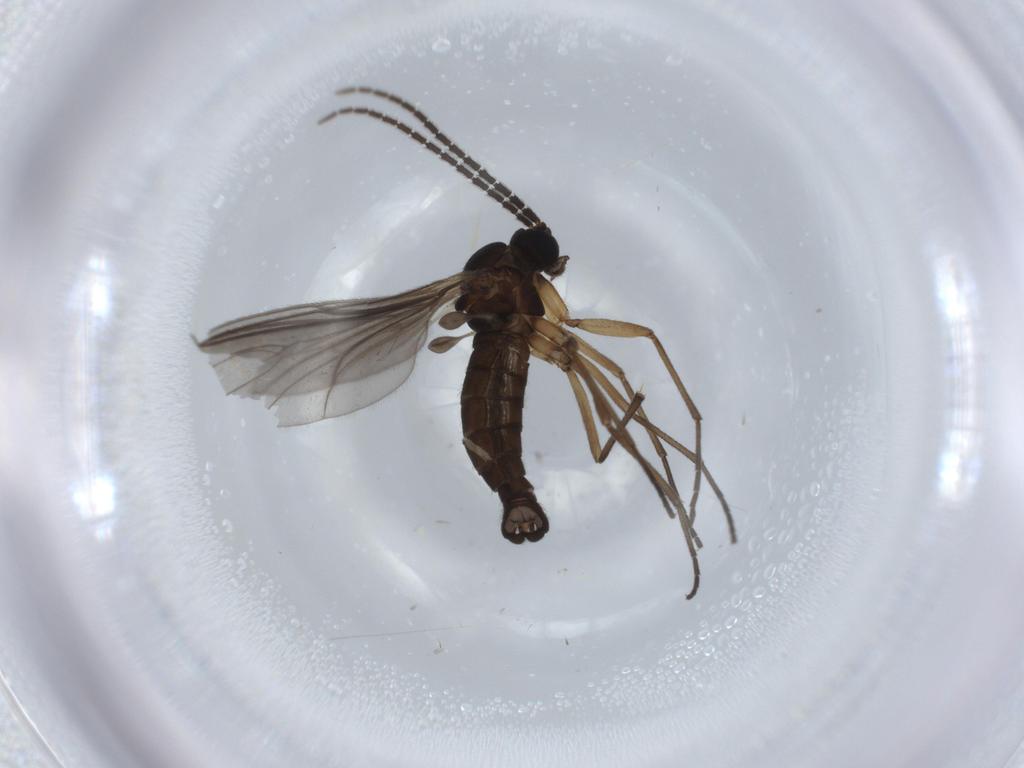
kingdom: Animalia
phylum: Arthropoda
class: Insecta
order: Diptera
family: Sciaridae
